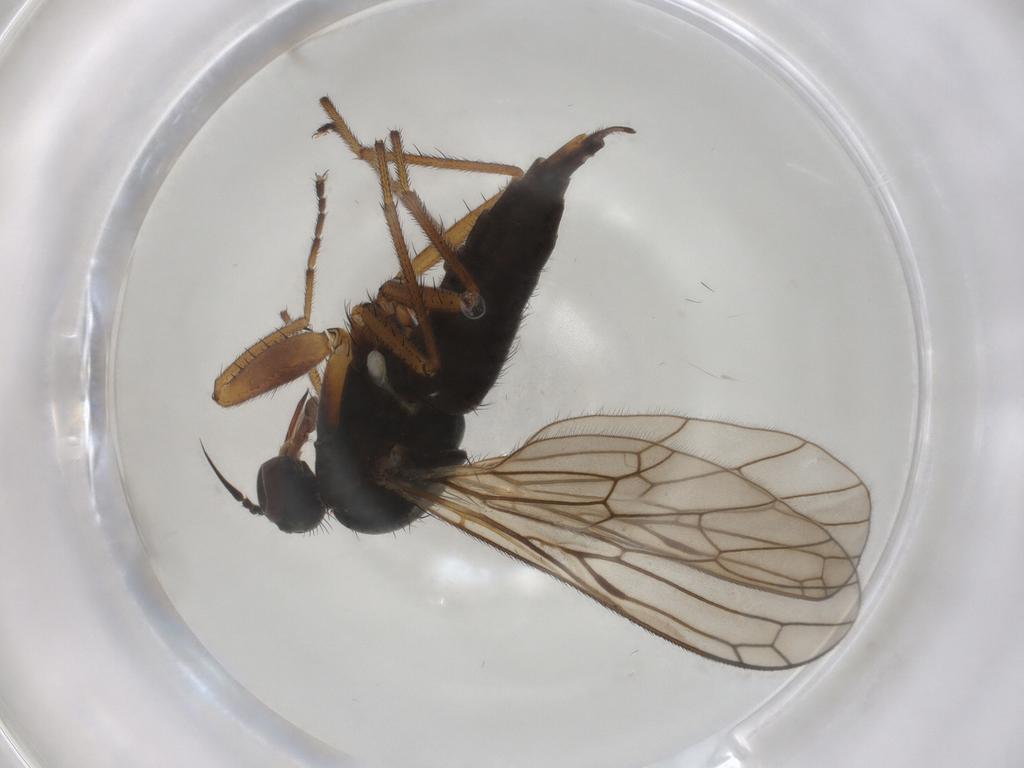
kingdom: Animalia
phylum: Arthropoda
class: Insecta
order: Diptera
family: Empididae
